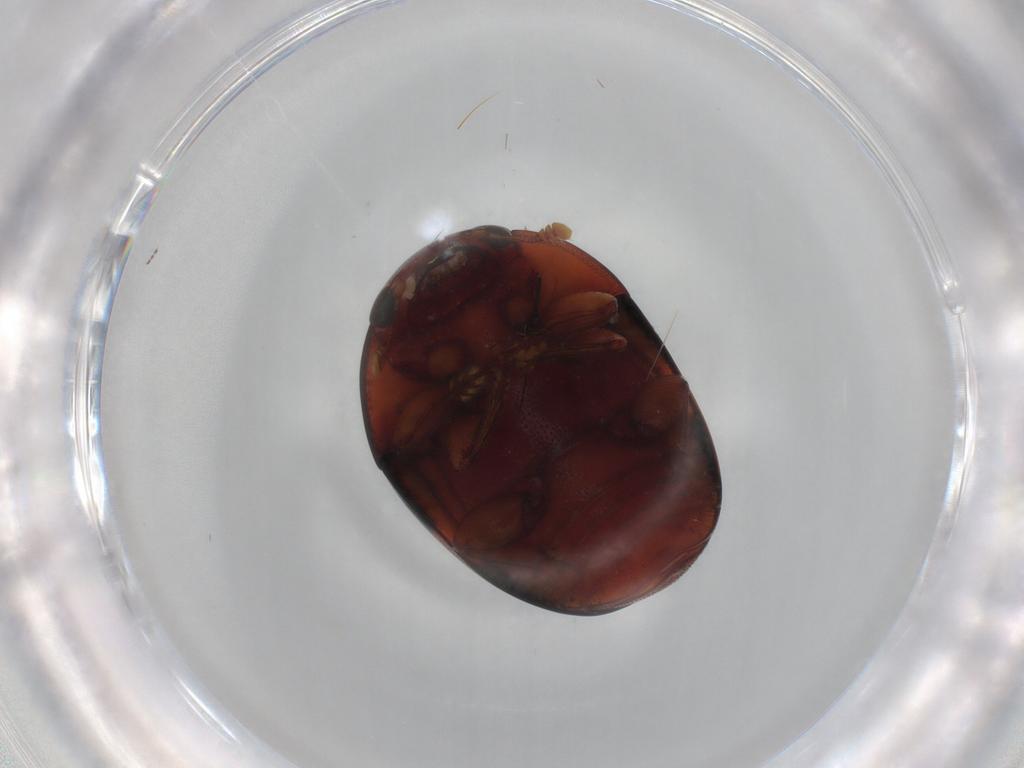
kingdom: Animalia
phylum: Arthropoda
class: Insecta
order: Coleoptera
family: Nitidulidae
